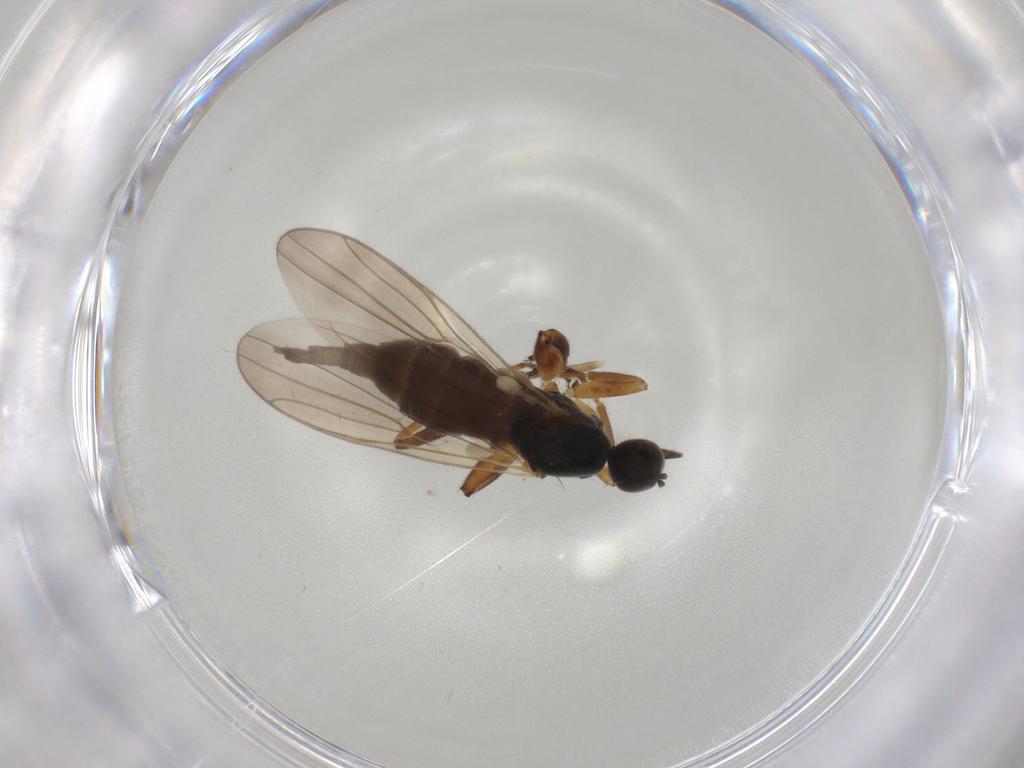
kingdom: Animalia
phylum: Arthropoda
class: Insecta
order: Diptera
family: Hybotidae
